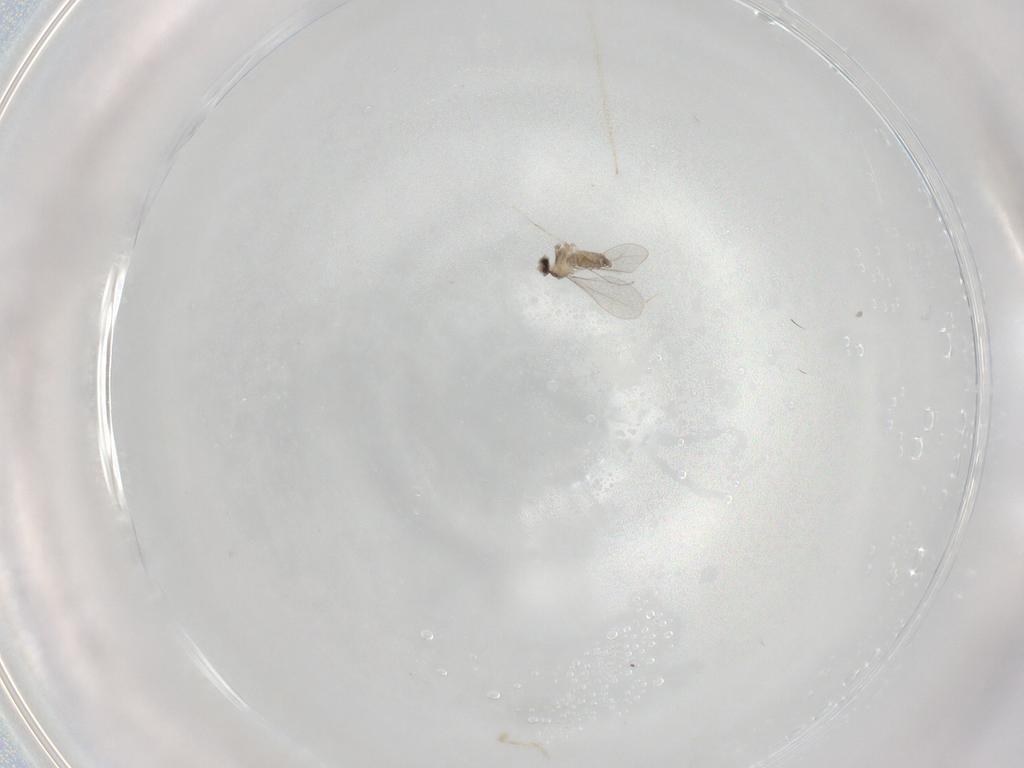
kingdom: Animalia
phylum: Arthropoda
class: Insecta
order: Diptera
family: Cecidomyiidae
